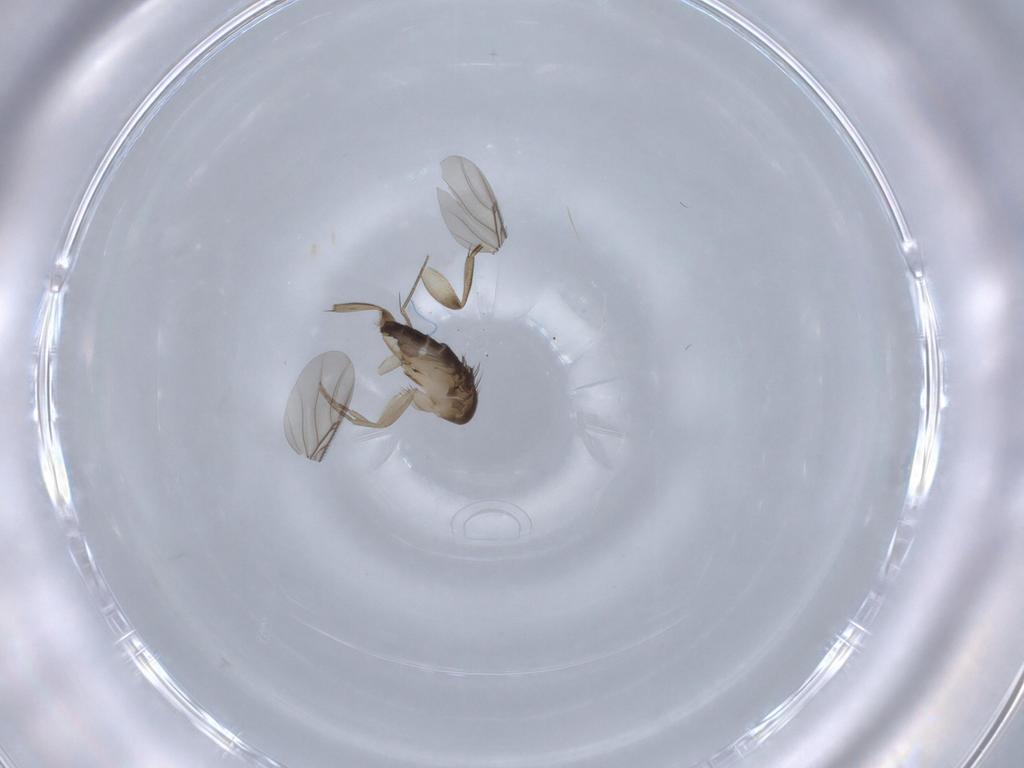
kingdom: Animalia
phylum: Arthropoda
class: Insecta
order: Diptera
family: Phoridae
